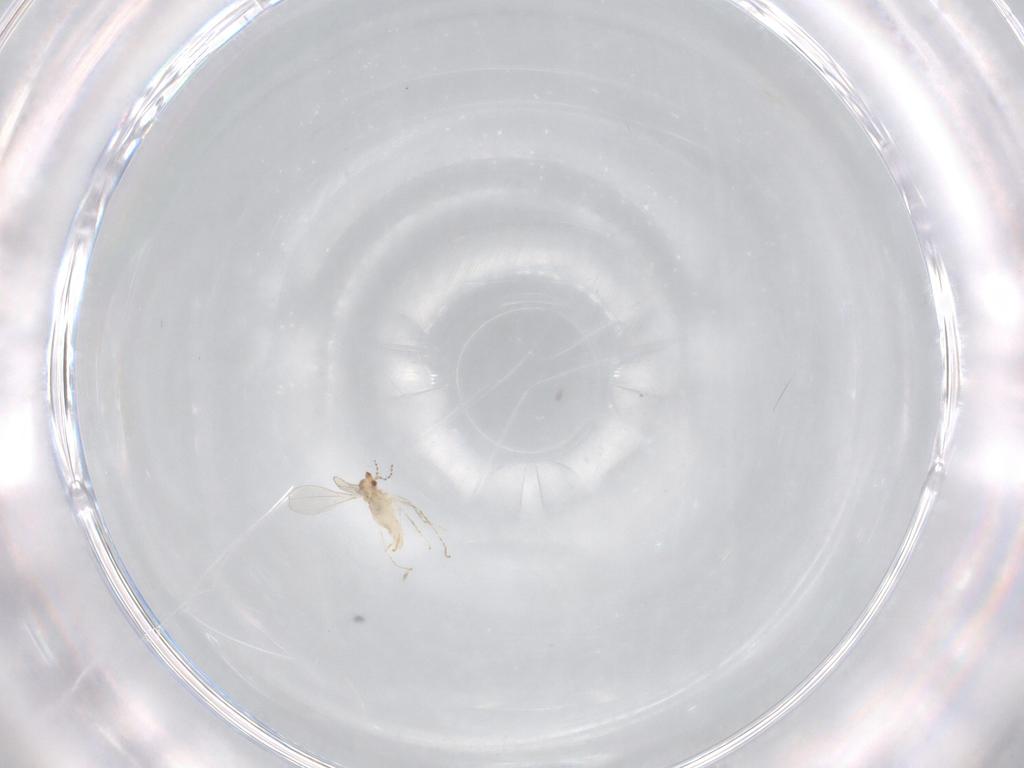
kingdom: Animalia
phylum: Arthropoda
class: Insecta
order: Diptera
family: Cecidomyiidae
